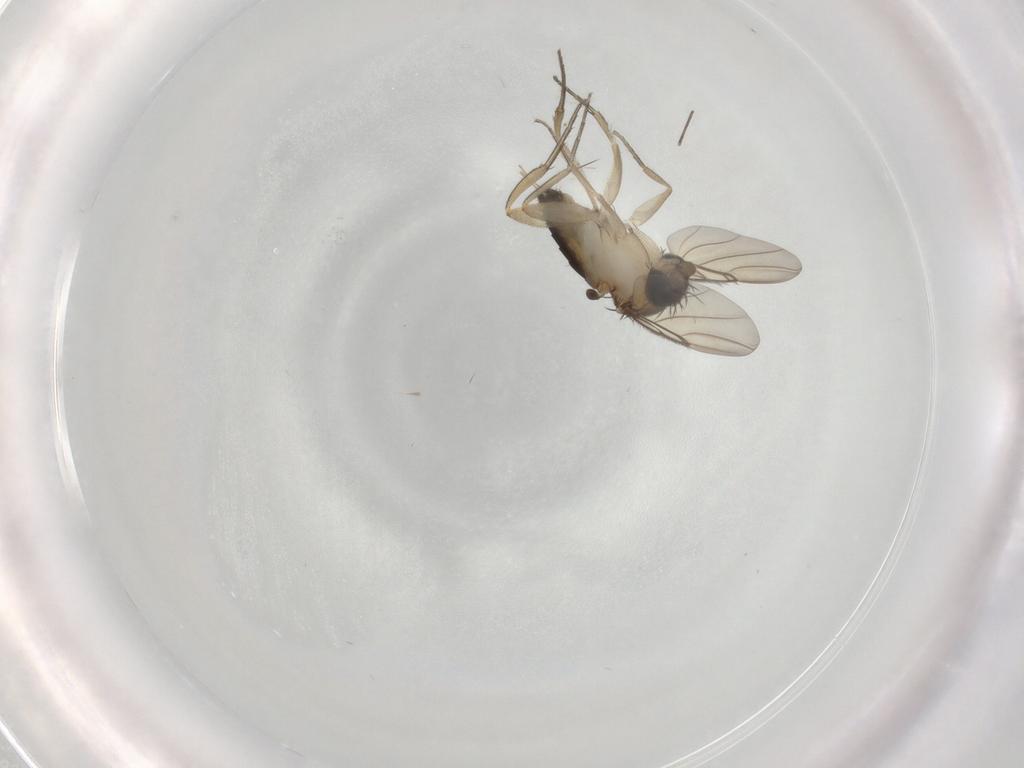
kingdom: Animalia
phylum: Arthropoda
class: Insecta
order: Diptera
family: Phoridae
